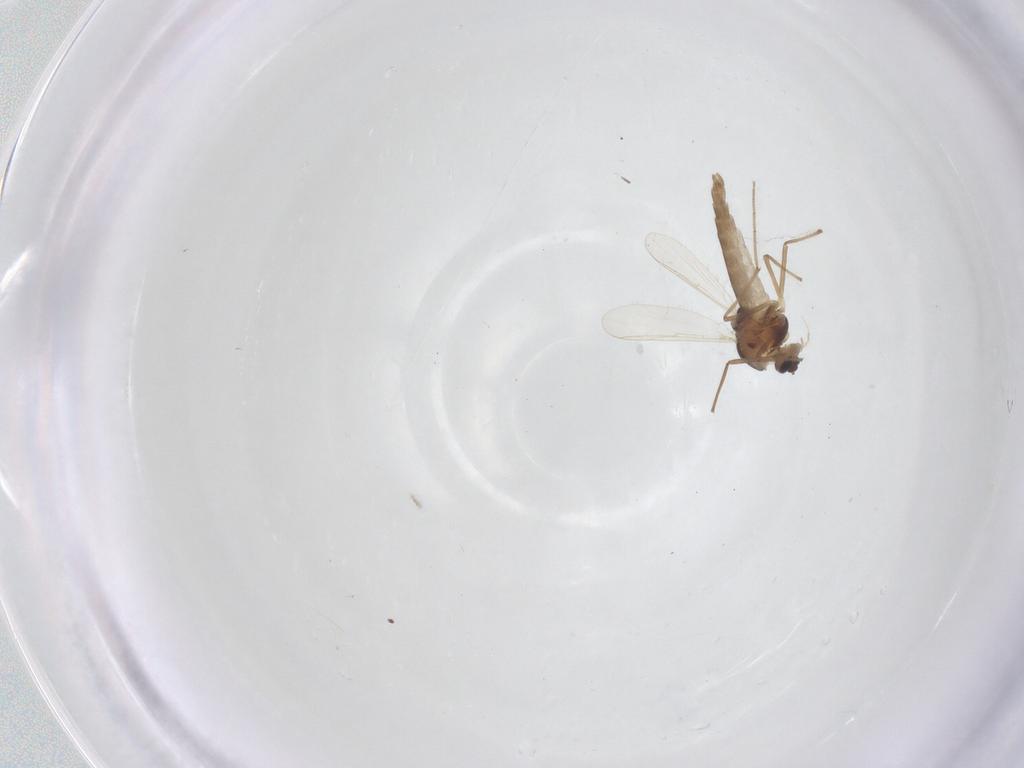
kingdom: Animalia
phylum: Arthropoda
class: Insecta
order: Diptera
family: Chironomidae
